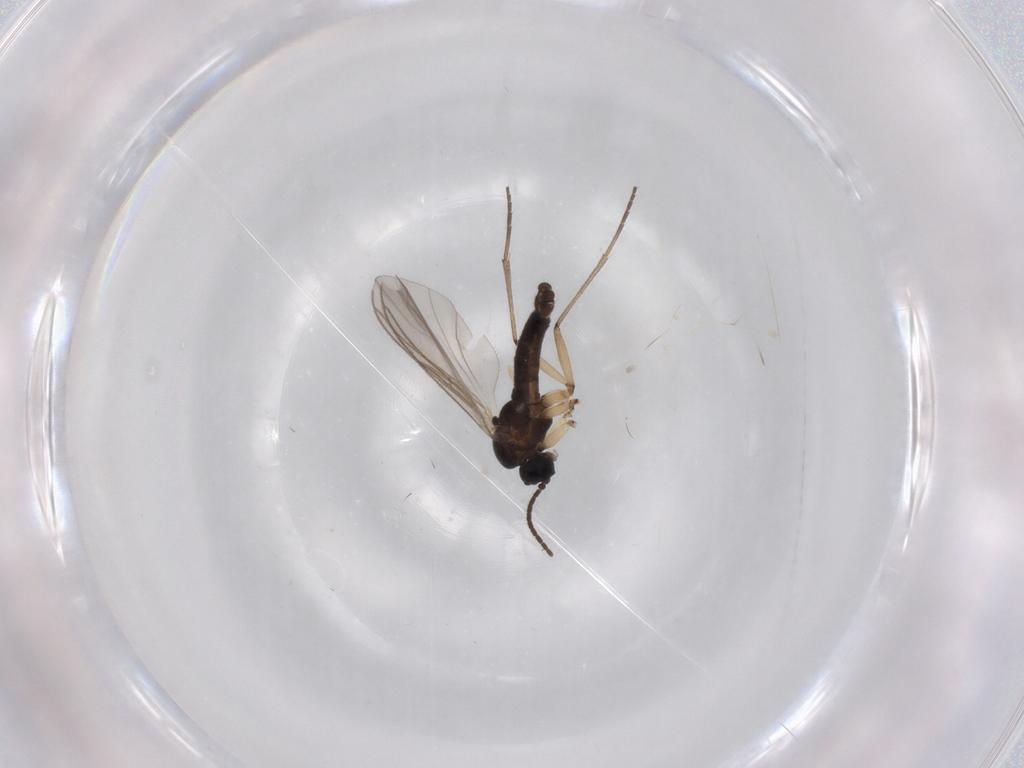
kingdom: Animalia
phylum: Arthropoda
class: Insecta
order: Diptera
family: Sciaridae
